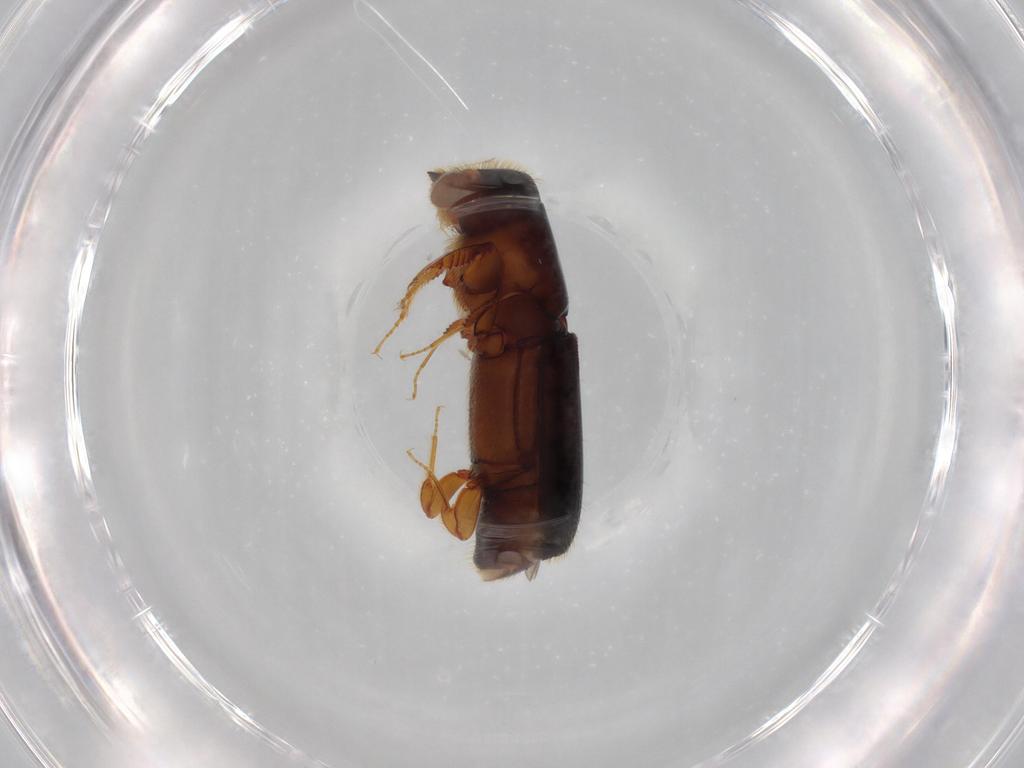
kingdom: Animalia
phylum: Arthropoda
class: Insecta
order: Coleoptera
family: Curculionidae
